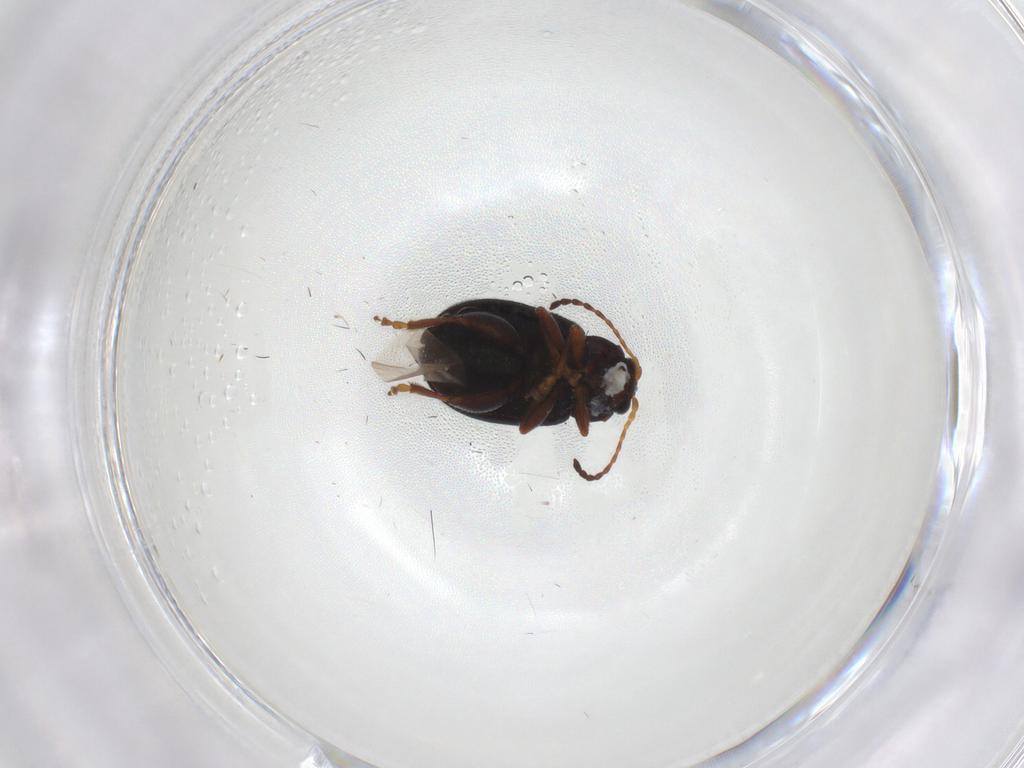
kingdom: Animalia
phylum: Arthropoda
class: Insecta
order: Coleoptera
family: Chrysomelidae
